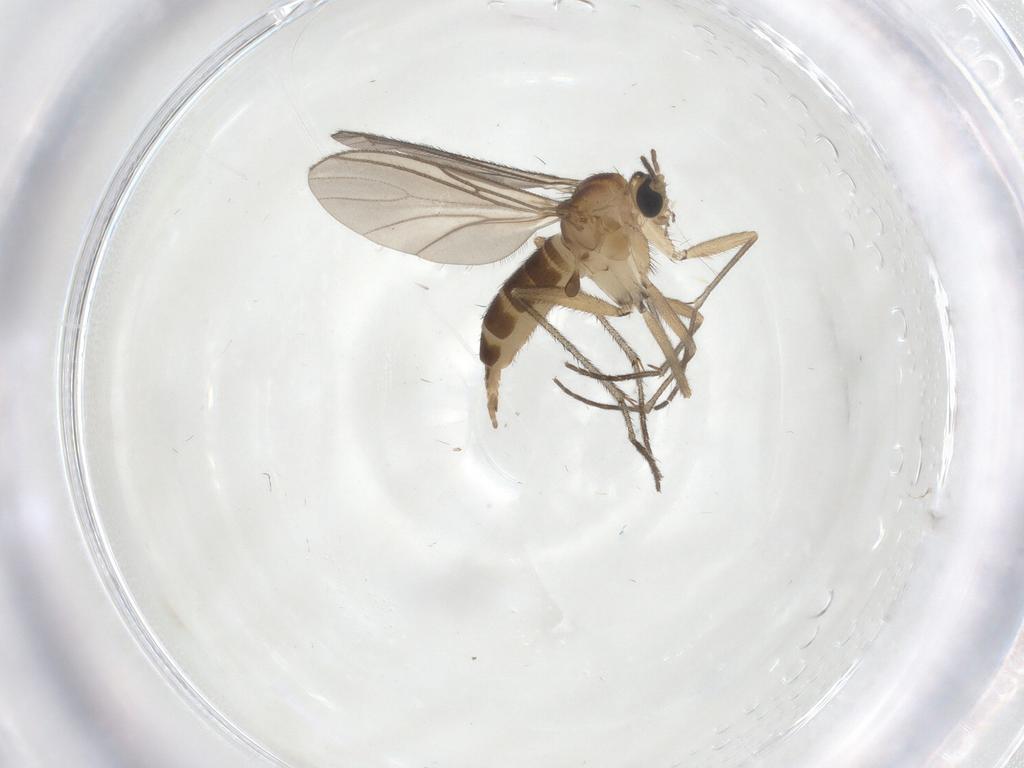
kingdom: Animalia
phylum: Arthropoda
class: Insecta
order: Diptera
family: Sciaridae
